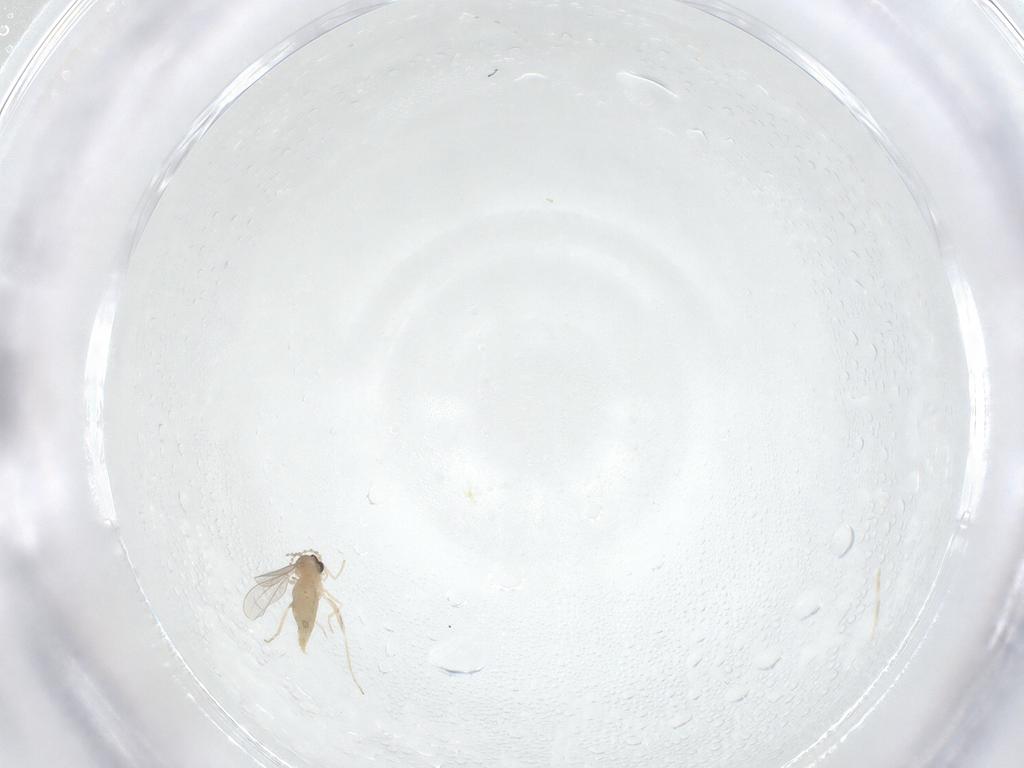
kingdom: Animalia
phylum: Arthropoda
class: Insecta
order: Diptera
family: Cecidomyiidae
